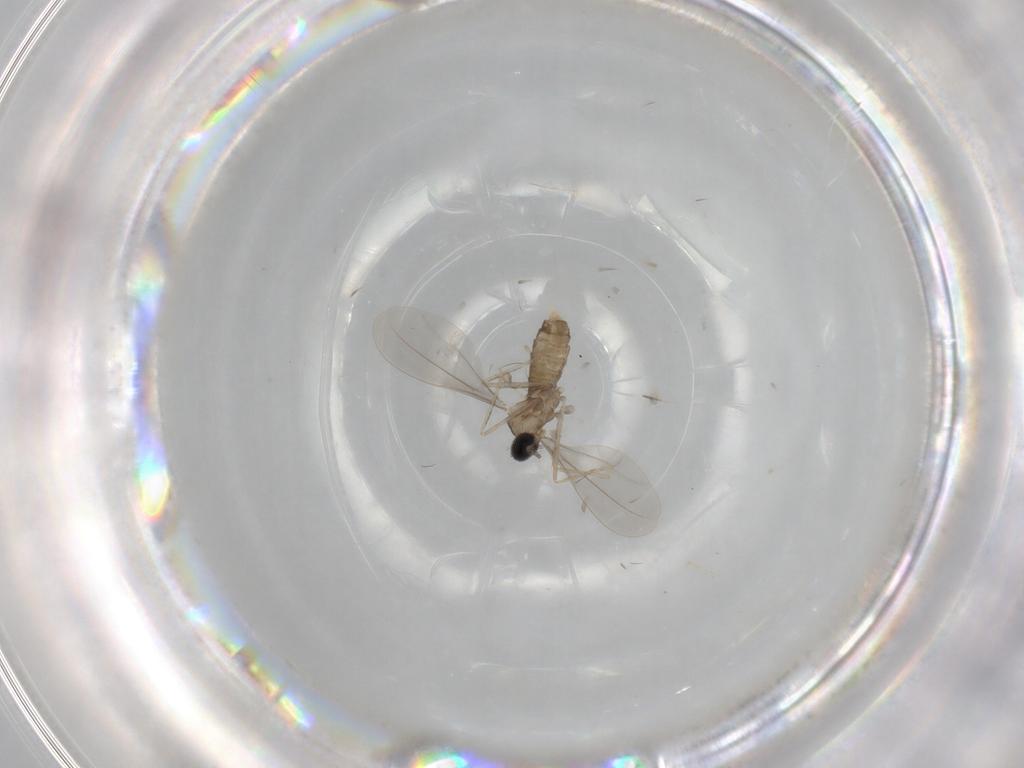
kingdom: Animalia
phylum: Arthropoda
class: Insecta
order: Diptera
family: Cecidomyiidae
